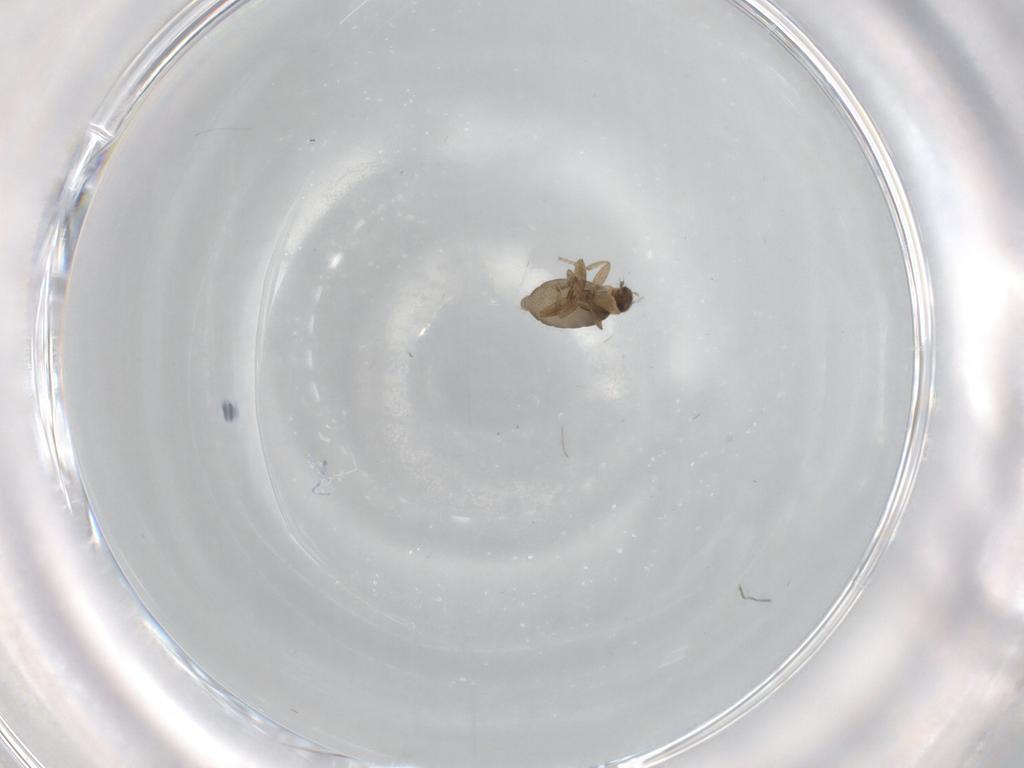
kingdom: Animalia
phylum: Arthropoda
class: Insecta
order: Diptera
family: Phoridae
